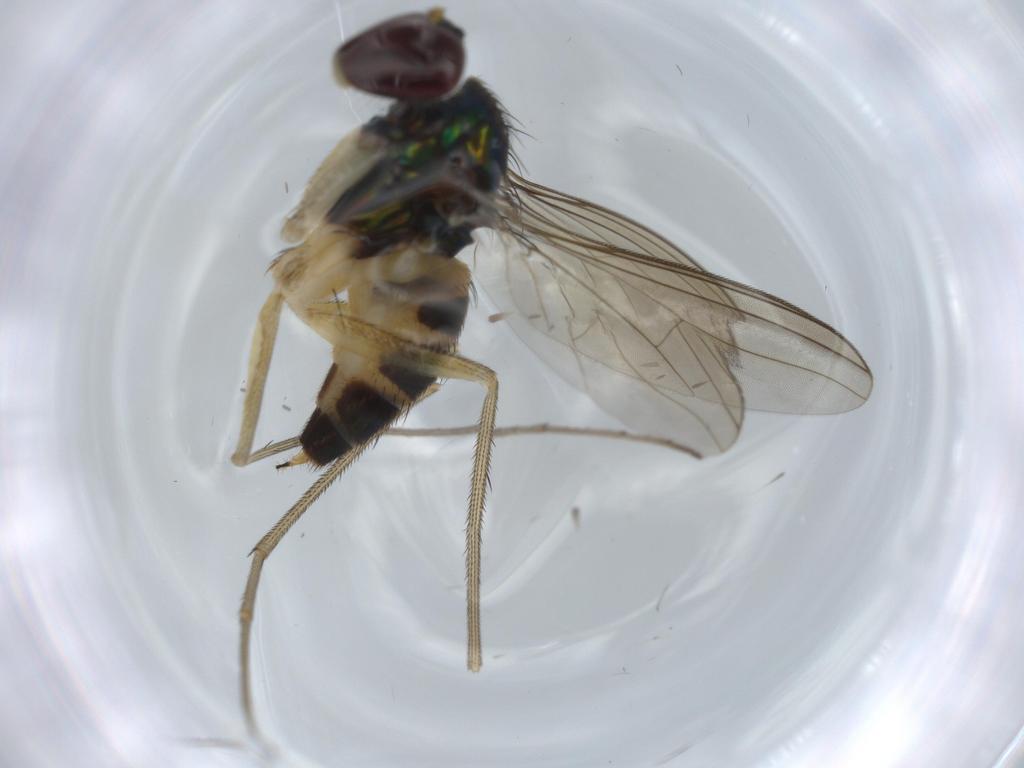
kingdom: Animalia
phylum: Arthropoda
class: Insecta
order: Diptera
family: Dolichopodidae
